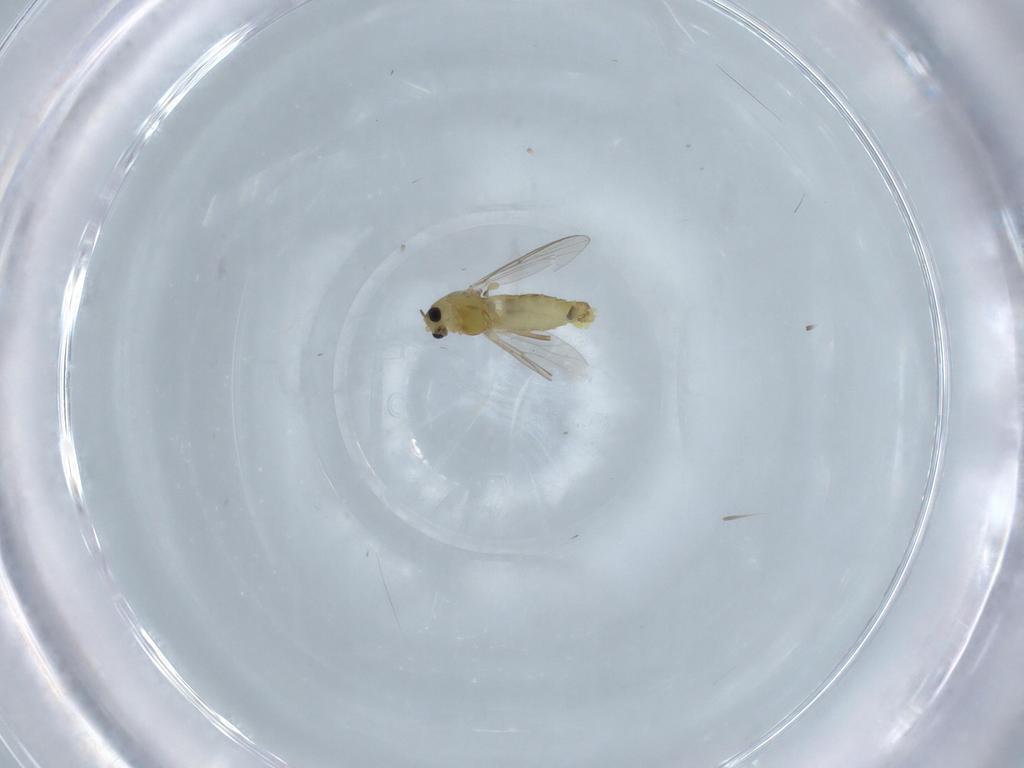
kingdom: Animalia
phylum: Arthropoda
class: Insecta
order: Diptera
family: Chironomidae
